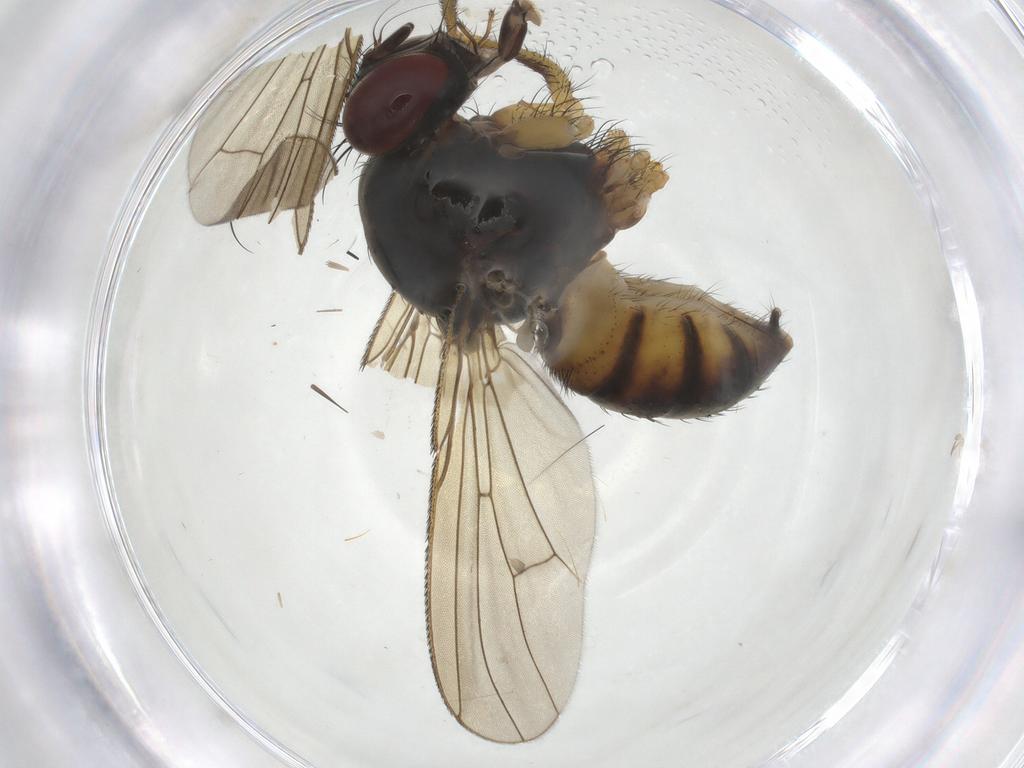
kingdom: Animalia
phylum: Arthropoda
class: Insecta
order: Diptera
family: Muscidae
